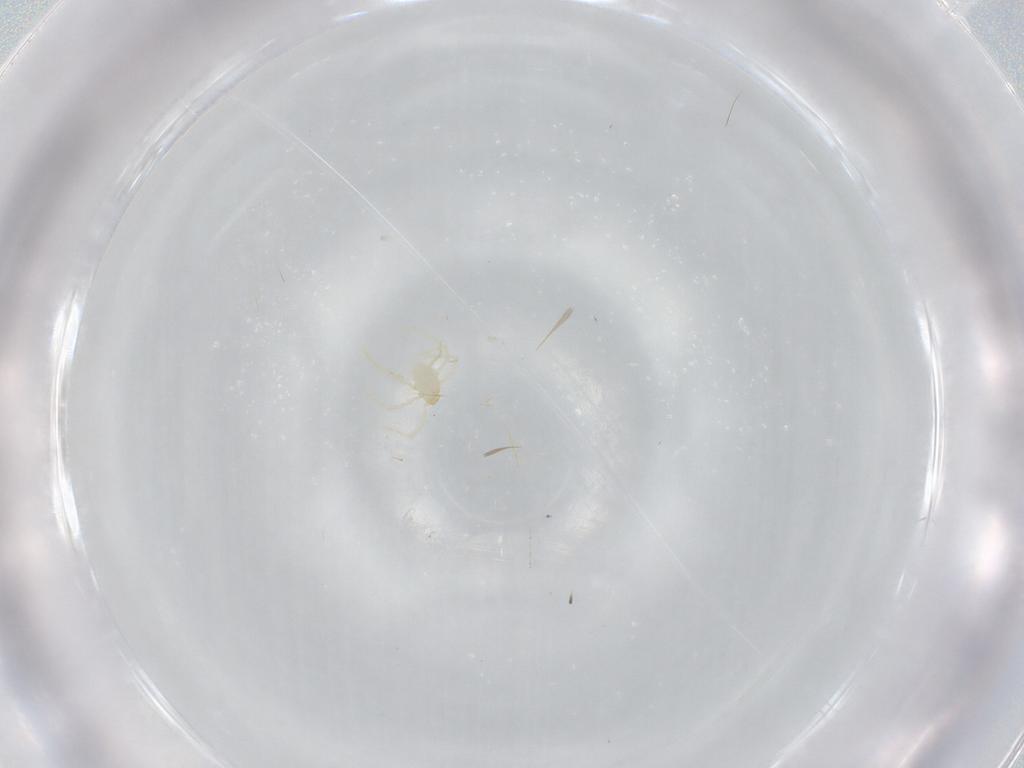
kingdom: Animalia
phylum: Arthropoda
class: Arachnida
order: Trombidiformes
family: Erythraeidae
